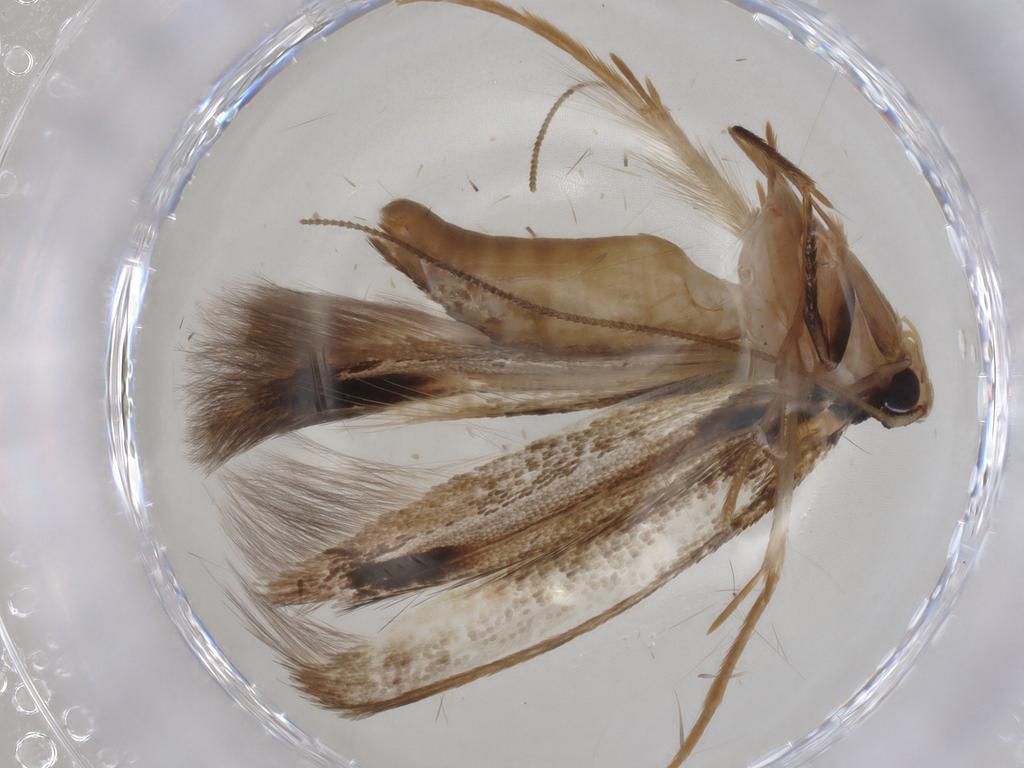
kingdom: Animalia
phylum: Arthropoda
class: Insecta
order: Lepidoptera
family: Tineidae
